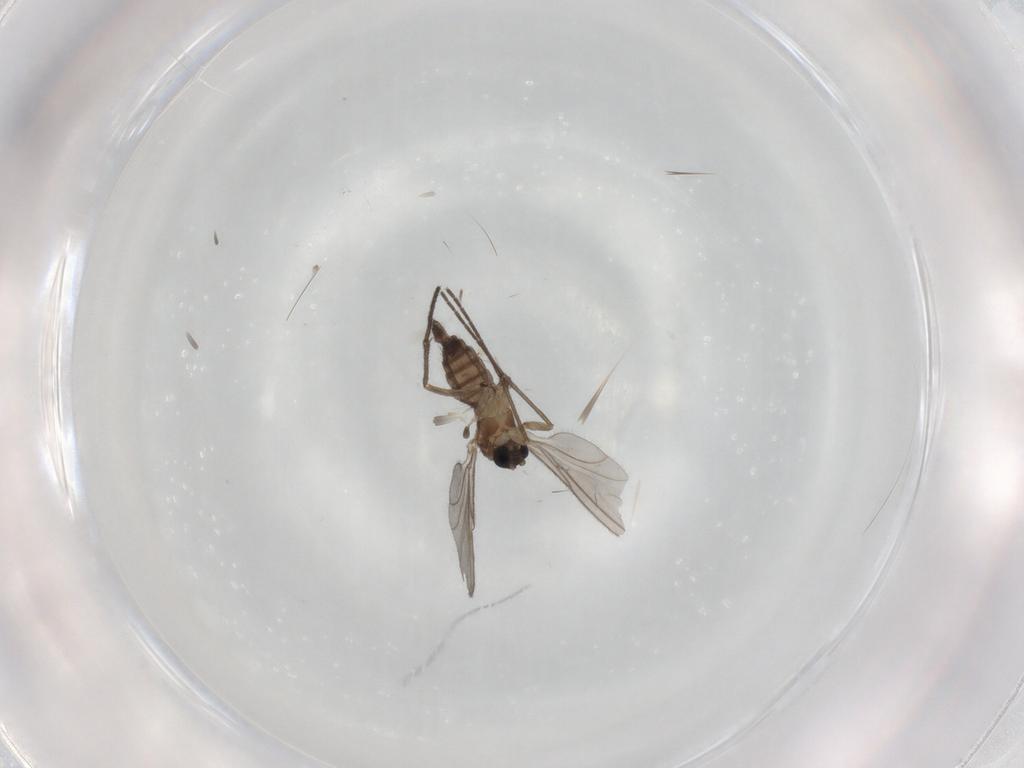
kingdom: Animalia
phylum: Arthropoda
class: Insecta
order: Diptera
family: Sciaridae
